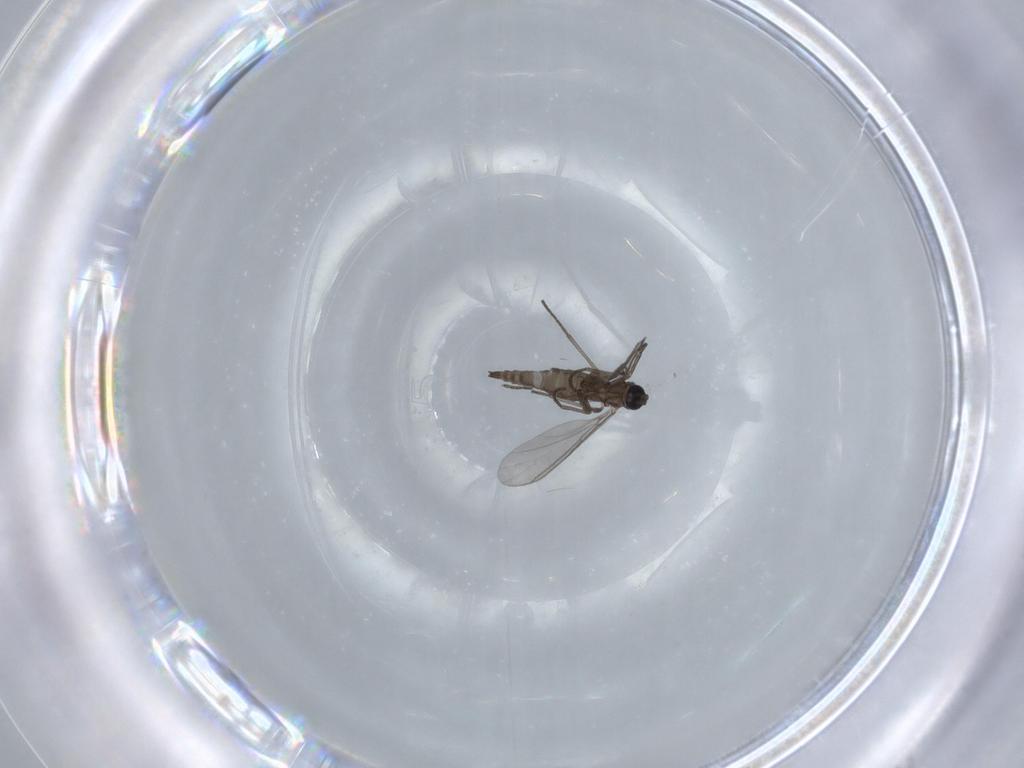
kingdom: Animalia
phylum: Arthropoda
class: Insecta
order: Diptera
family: Sciaridae
